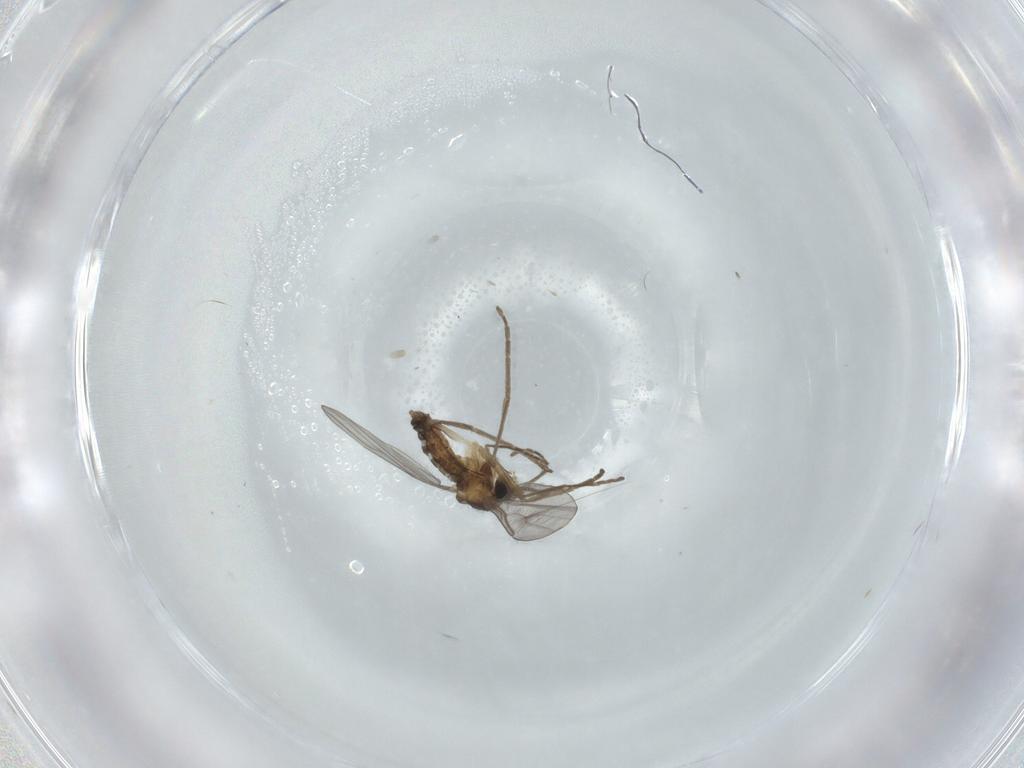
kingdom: Animalia
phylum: Arthropoda
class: Insecta
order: Diptera
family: Cecidomyiidae
